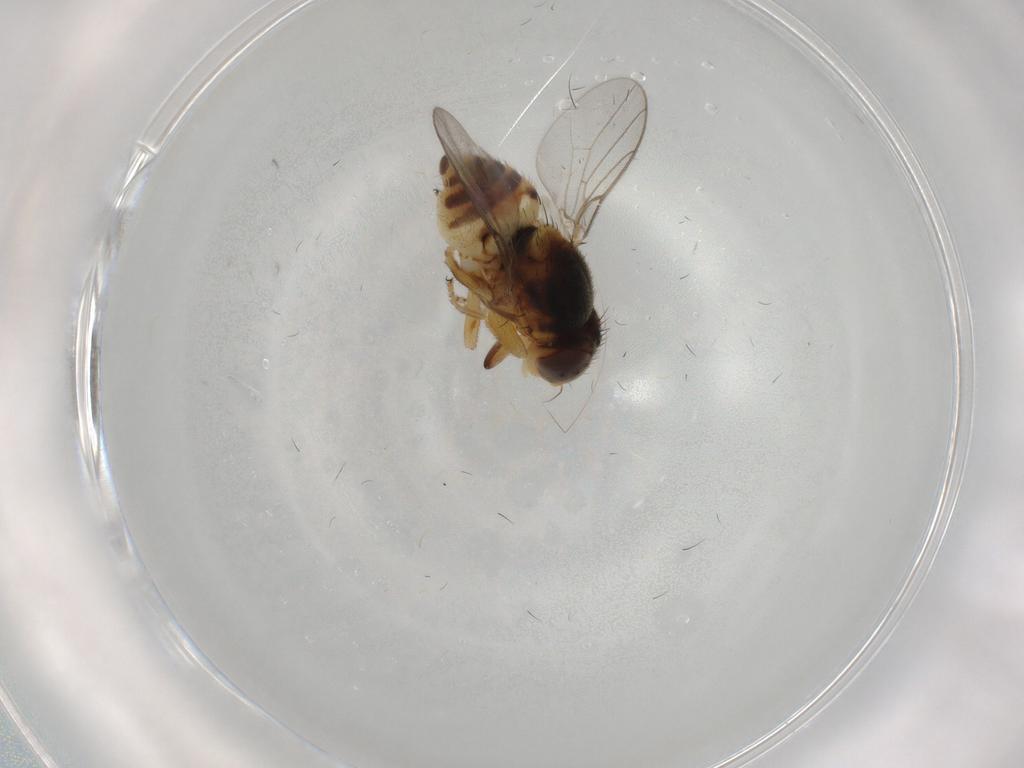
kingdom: Animalia
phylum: Arthropoda
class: Insecta
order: Diptera
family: Chloropidae
